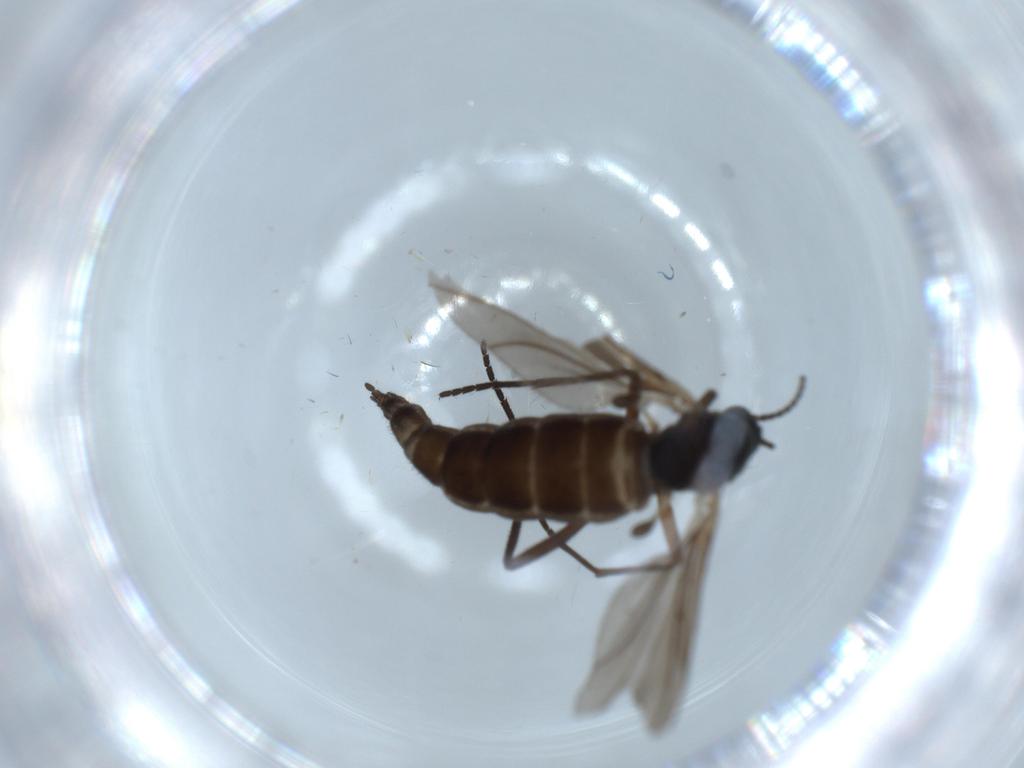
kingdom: Animalia
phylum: Arthropoda
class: Insecta
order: Diptera
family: Sciaridae
